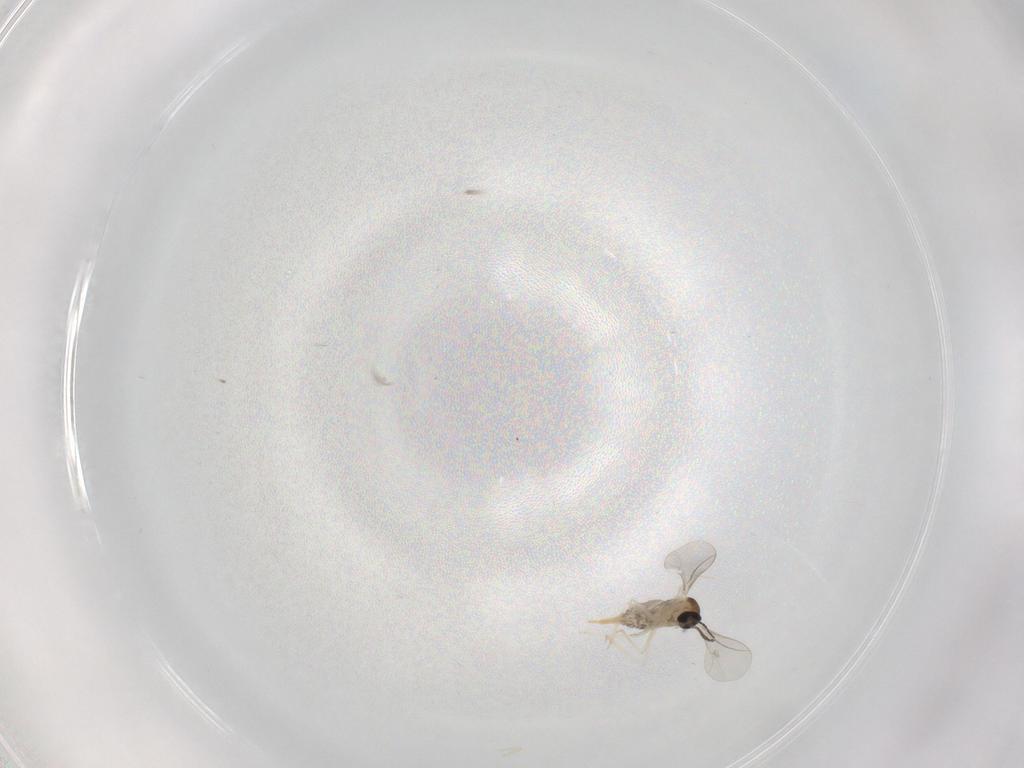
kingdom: Animalia
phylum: Arthropoda
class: Insecta
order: Diptera
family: Cecidomyiidae
